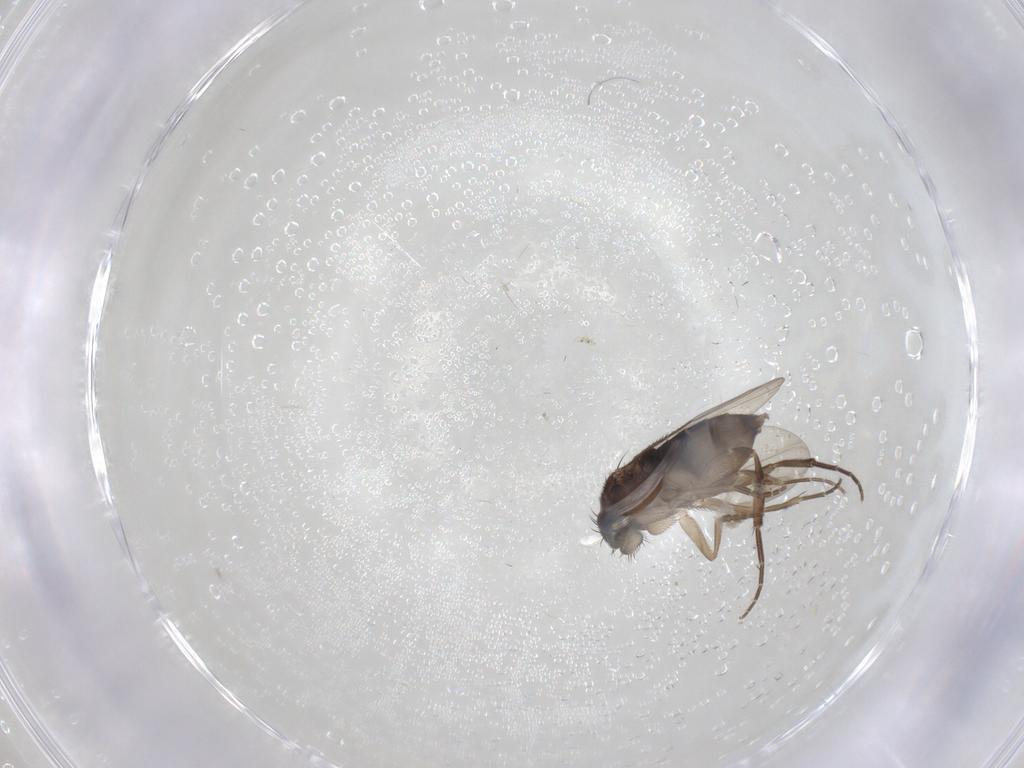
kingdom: Animalia
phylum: Arthropoda
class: Insecta
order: Diptera
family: Phoridae
